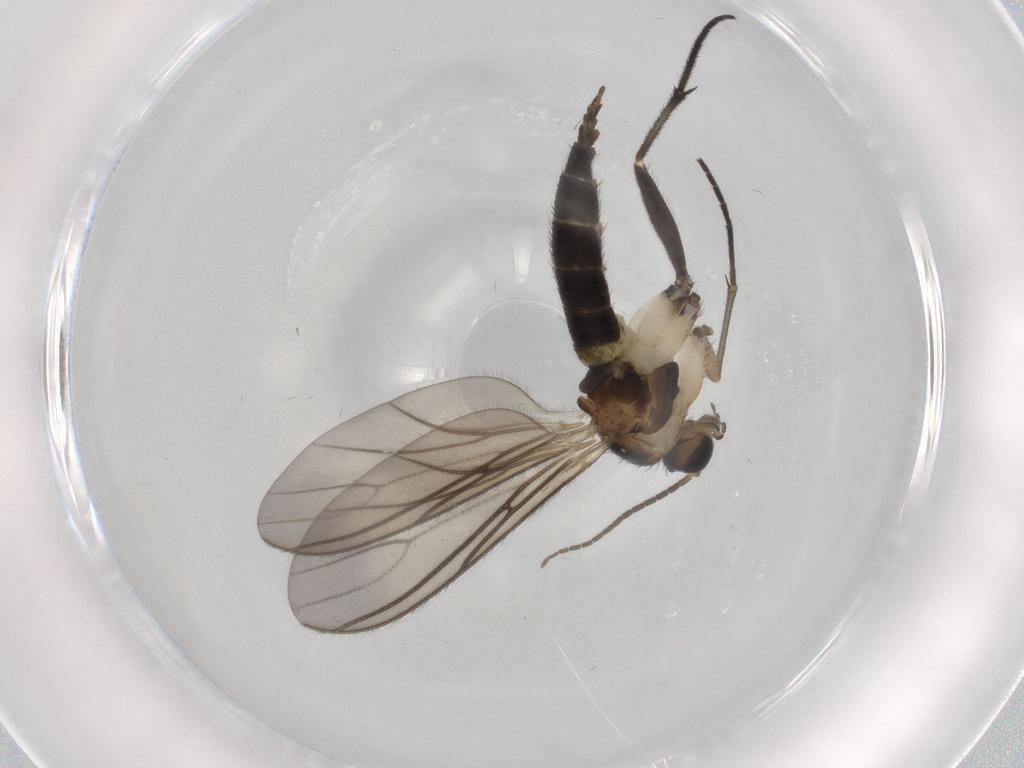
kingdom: Animalia
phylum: Arthropoda
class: Insecta
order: Diptera
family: Sciaridae
